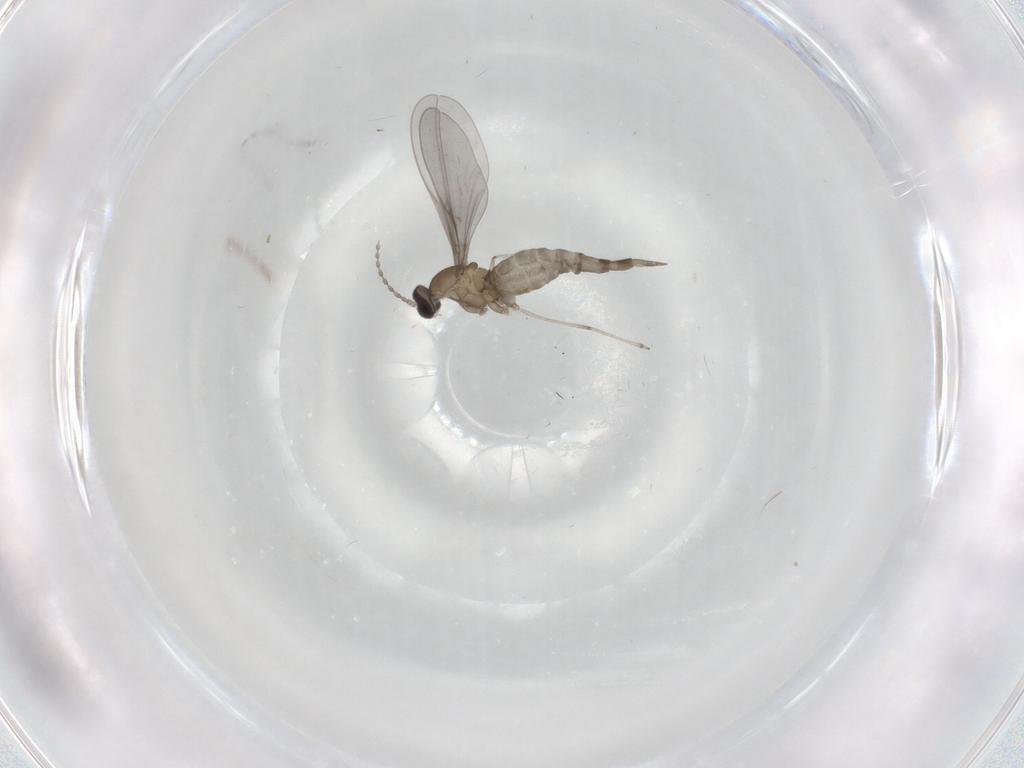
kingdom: Animalia
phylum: Arthropoda
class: Insecta
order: Diptera
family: Cecidomyiidae
